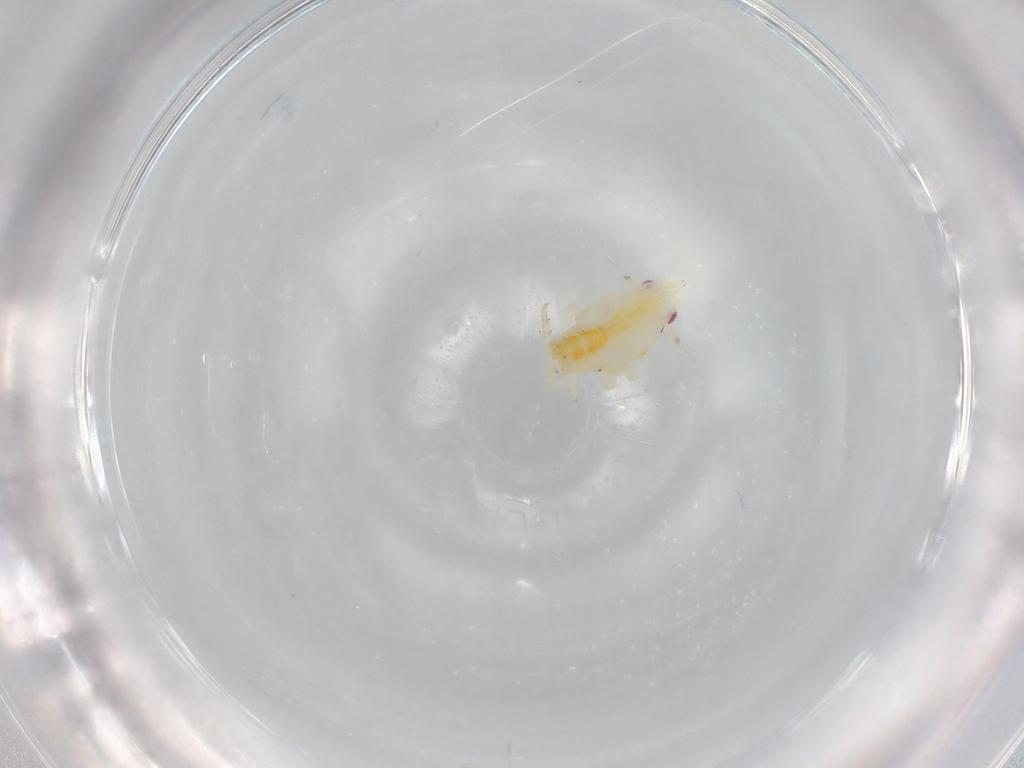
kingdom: Animalia
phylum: Arthropoda
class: Insecta
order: Hemiptera
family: Fulgoroidea_incertae_sedis
